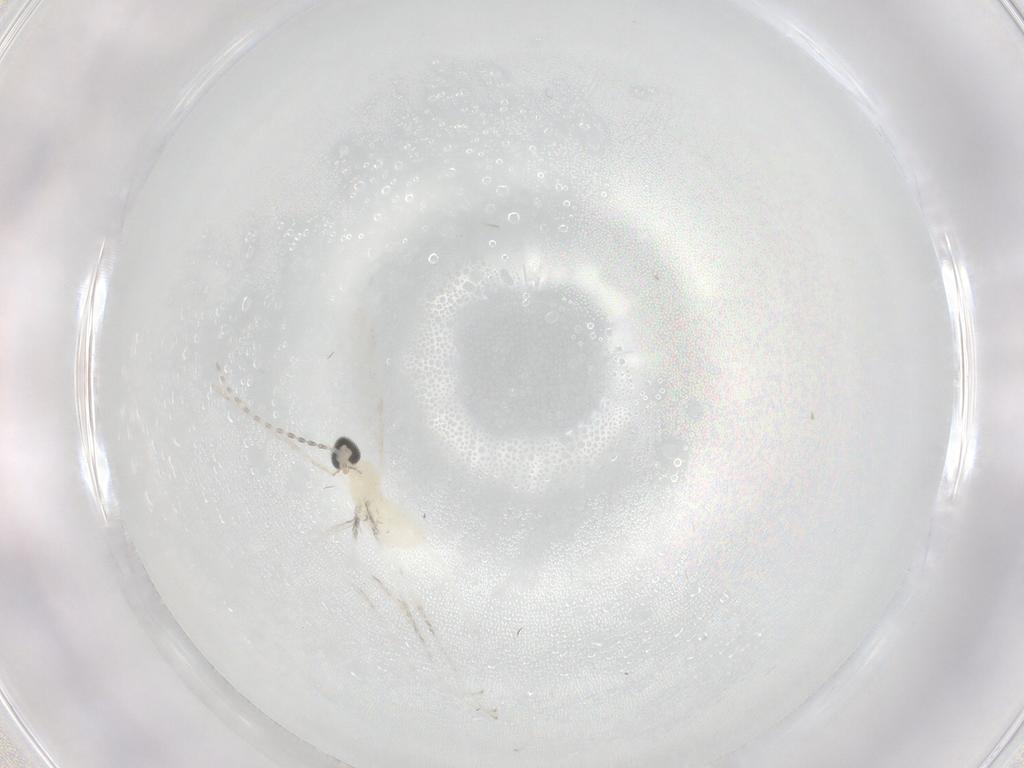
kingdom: Animalia
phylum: Arthropoda
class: Insecta
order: Diptera
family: Cecidomyiidae
